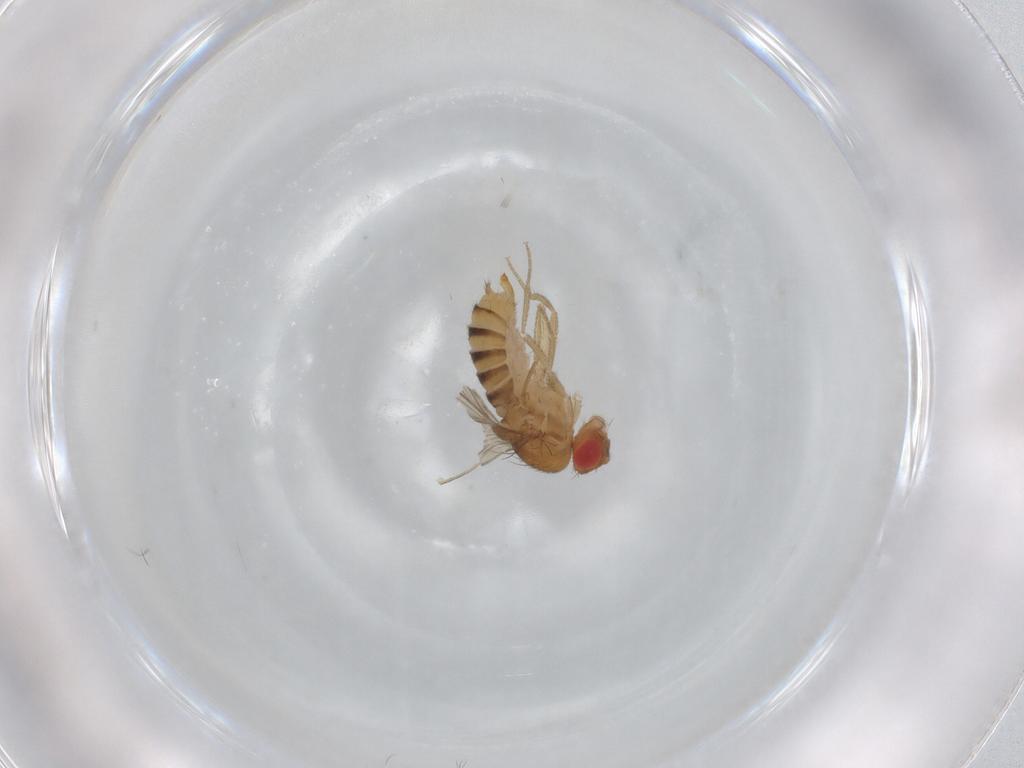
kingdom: Animalia
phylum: Arthropoda
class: Insecta
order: Diptera
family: Drosophilidae
